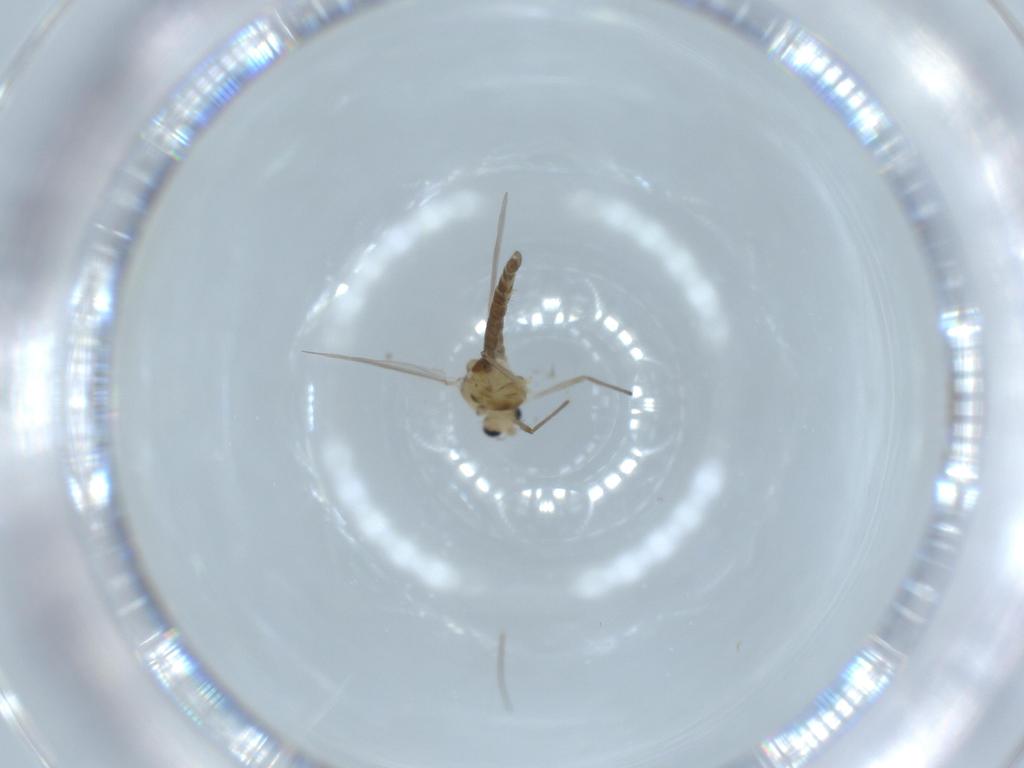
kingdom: Animalia
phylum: Arthropoda
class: Insecta
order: Diptera
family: Chironomidae
